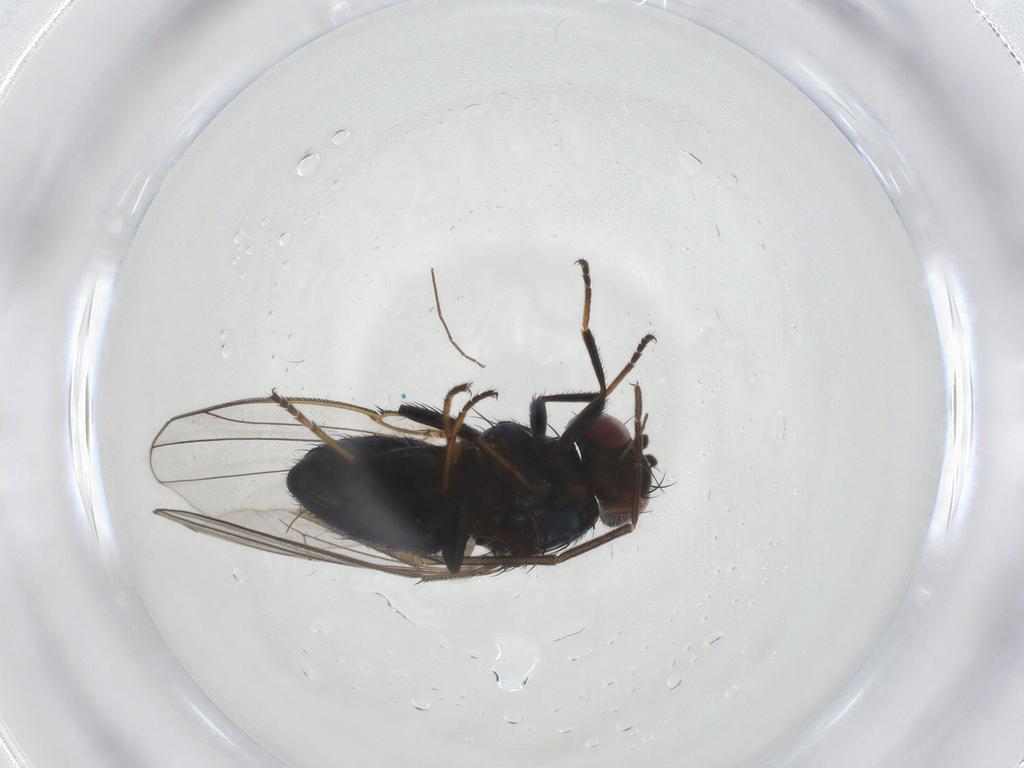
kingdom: Animalia
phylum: Arthropoda
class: Insecta
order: Diptera
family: Mycetophilidae
